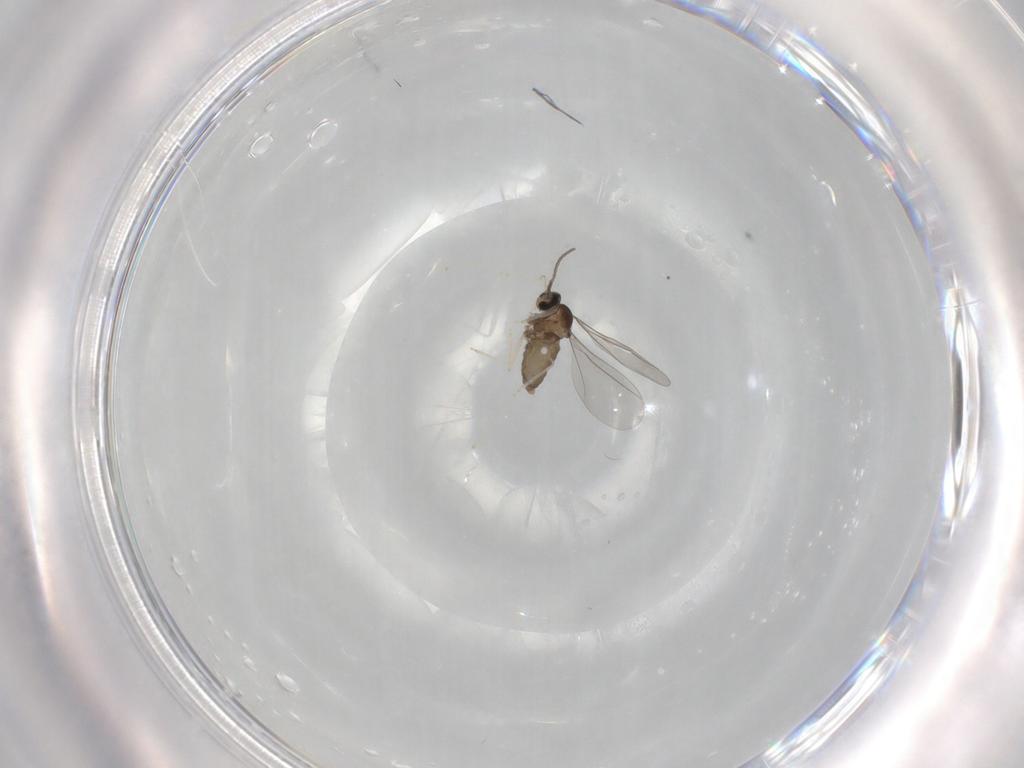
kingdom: Animalia
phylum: Arthropoda
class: Insecta
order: Diptera
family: Cecidomyiidae
